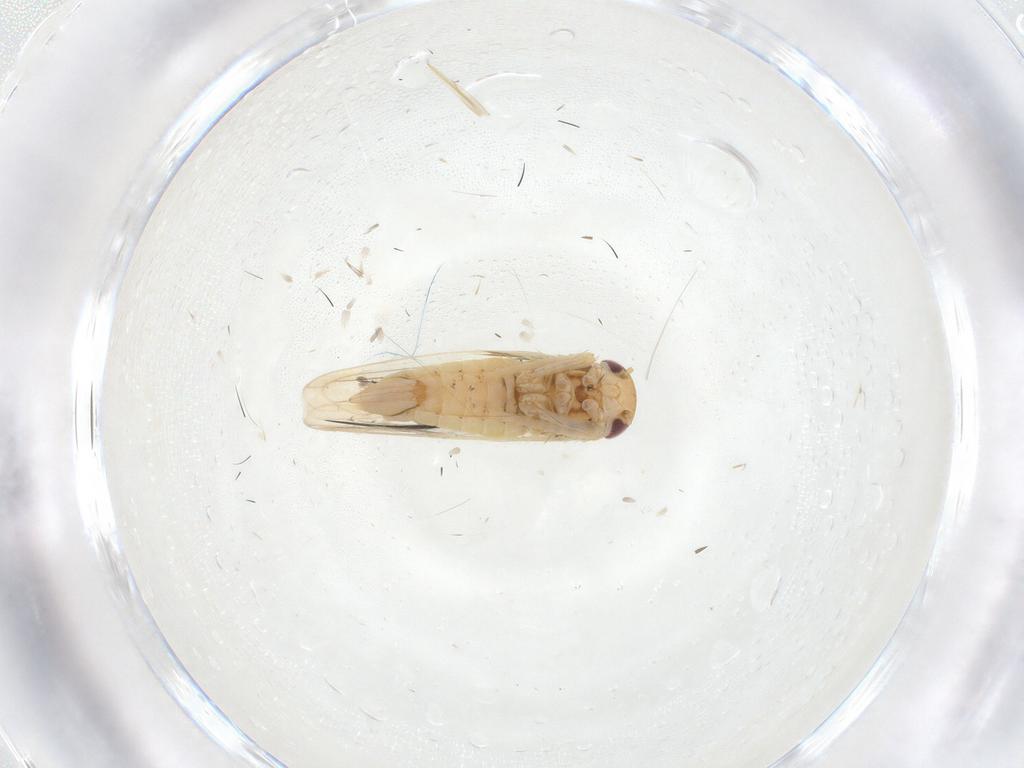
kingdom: Animalia
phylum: Arthropoda
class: Insecta
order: Hemiptera
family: Cicadellidae
